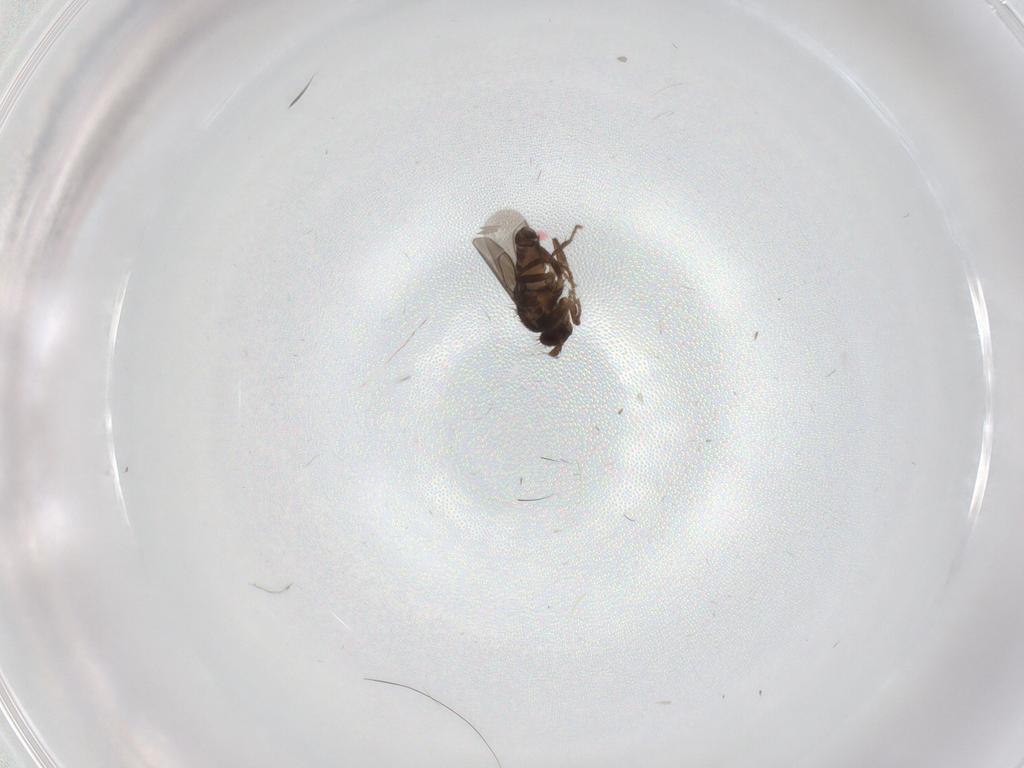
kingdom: Animalia
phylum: Arthropoda
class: Insecta
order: Diptera
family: Sphaeroceridae
